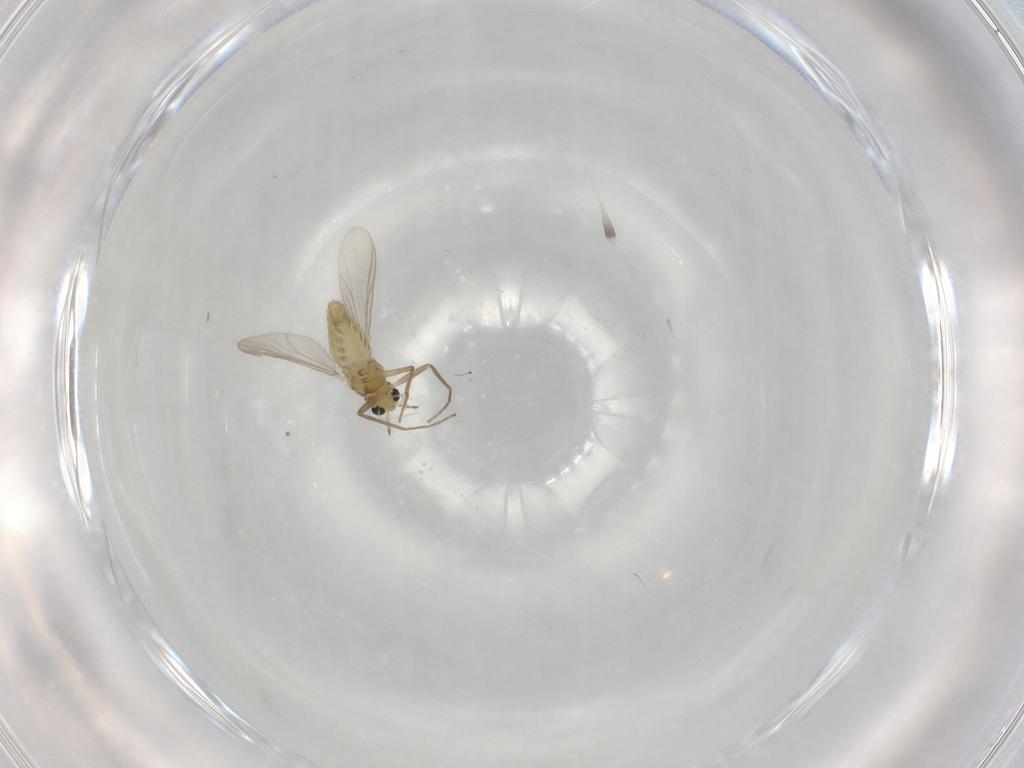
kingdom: Animalia
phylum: Arthropoda
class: Insecta
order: Diptera
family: Chironomidae
